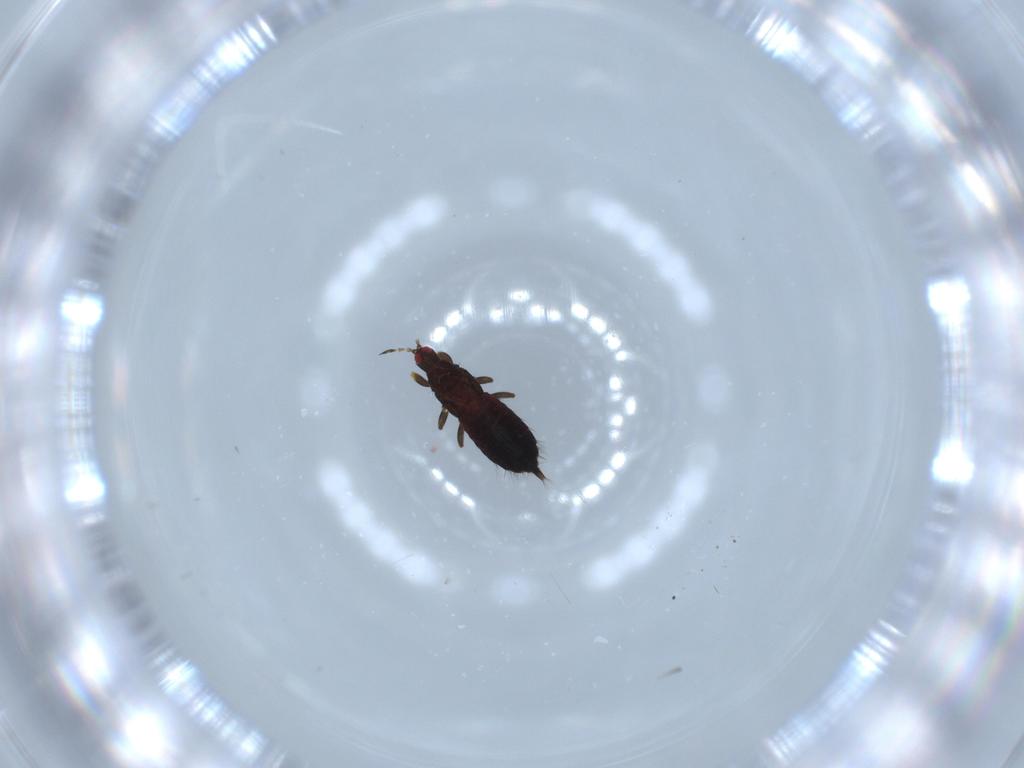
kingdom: Animalia
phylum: Arthropoda
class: Insecta
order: Thysanoptera
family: Phlaeothripidae
